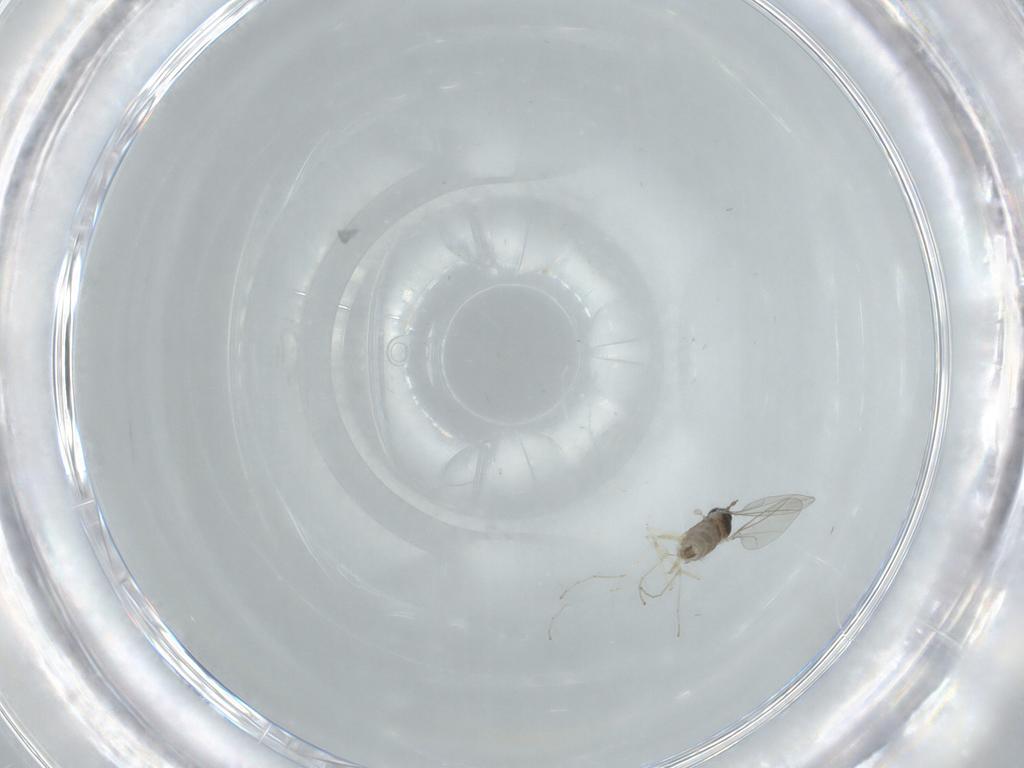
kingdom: Animalia
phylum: Arthropoda
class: Insecta
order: Diptera
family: Cecidomyiidae
